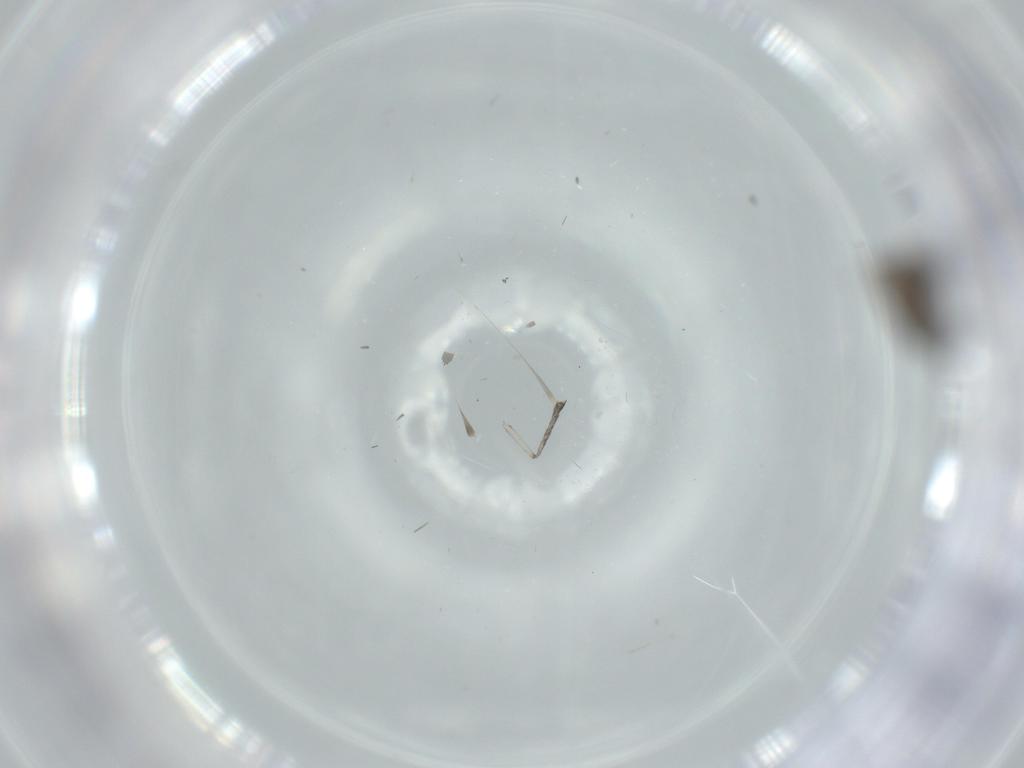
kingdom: Animalia
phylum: Arthropoda
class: Insecta
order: Diptera
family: Psychodidae
